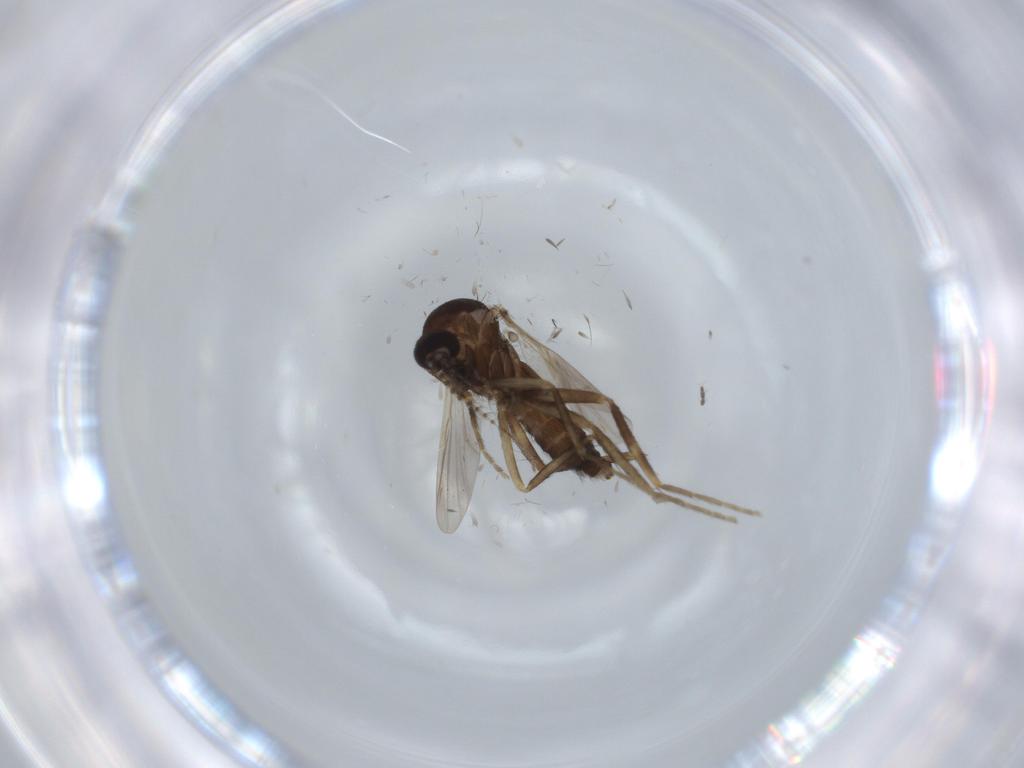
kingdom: Animalia
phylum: Arthropoda
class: Insecta
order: Diptera
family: Ceratopogonidae
